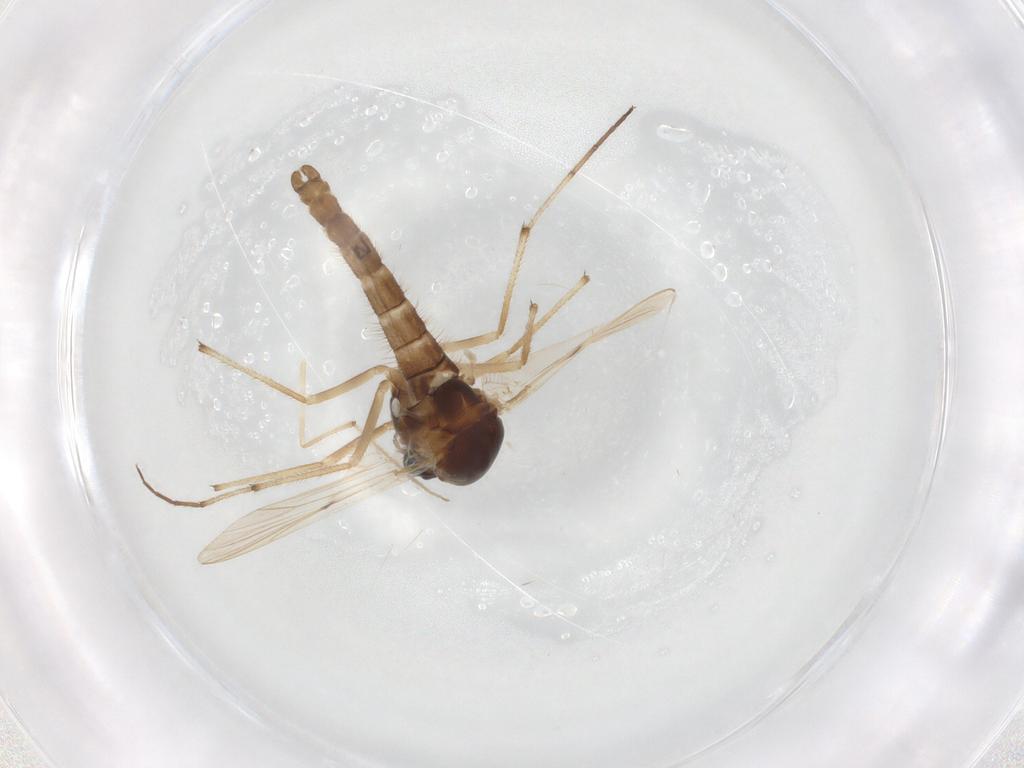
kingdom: Animalia
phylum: Arthropoda
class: Insecta
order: Diptera
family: Chironomidae
